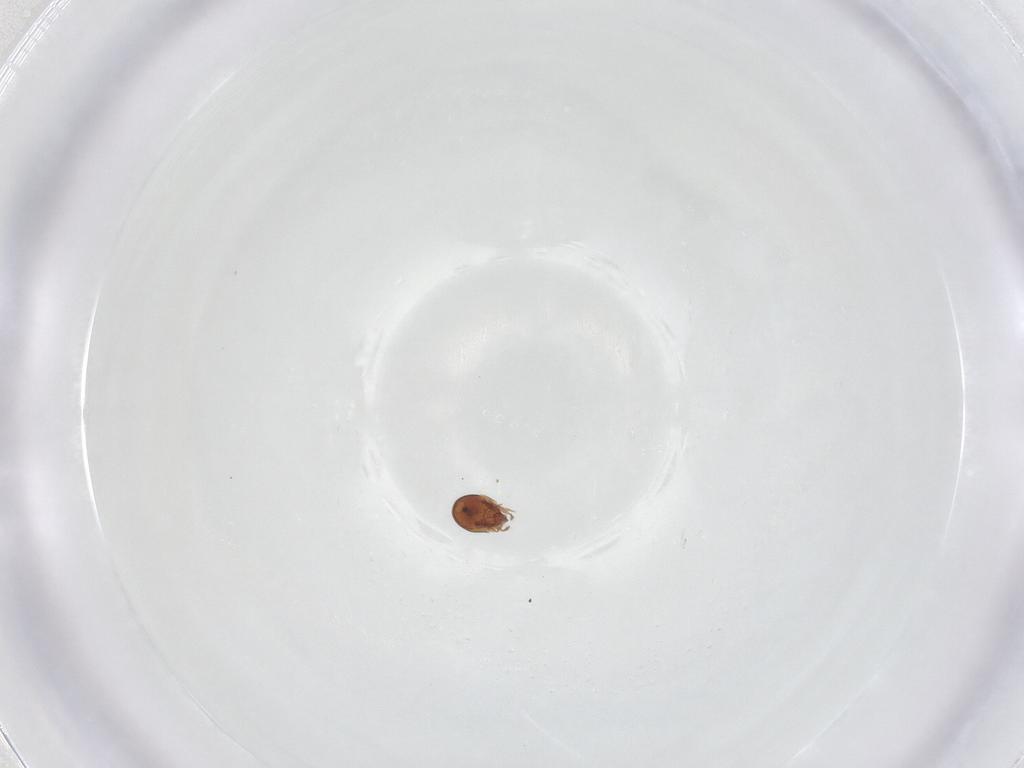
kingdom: Animalia
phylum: Arthropoda
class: Arachnida
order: Sarcoptiformes
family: Scheloribatidae
